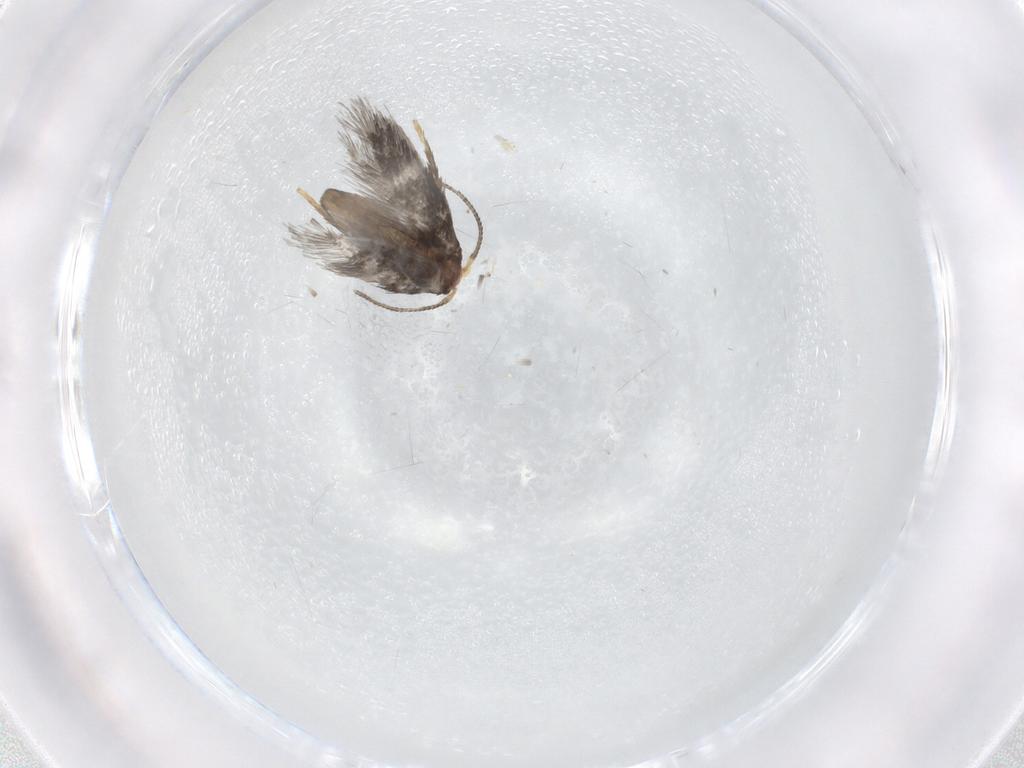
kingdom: Animalia
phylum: Arthropoda
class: Insecta
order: Lepidoptera
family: Nepticulidae
